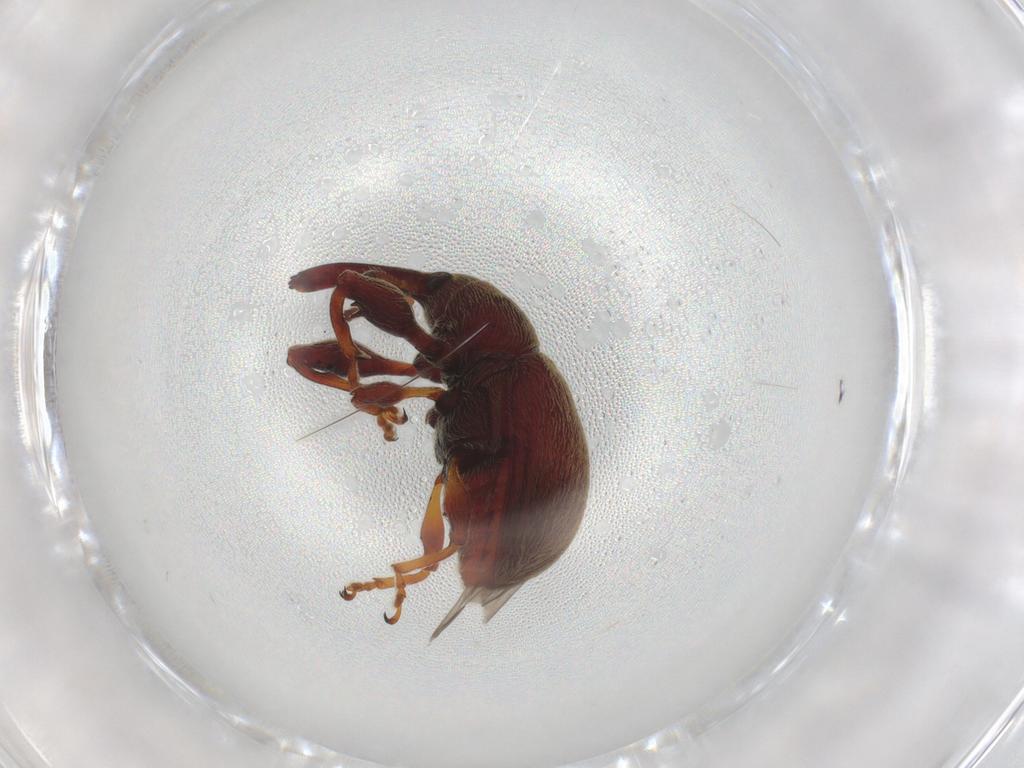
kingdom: Animalia
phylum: Arthropoda
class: Insecta
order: Coleoptera
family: Curculionidae
